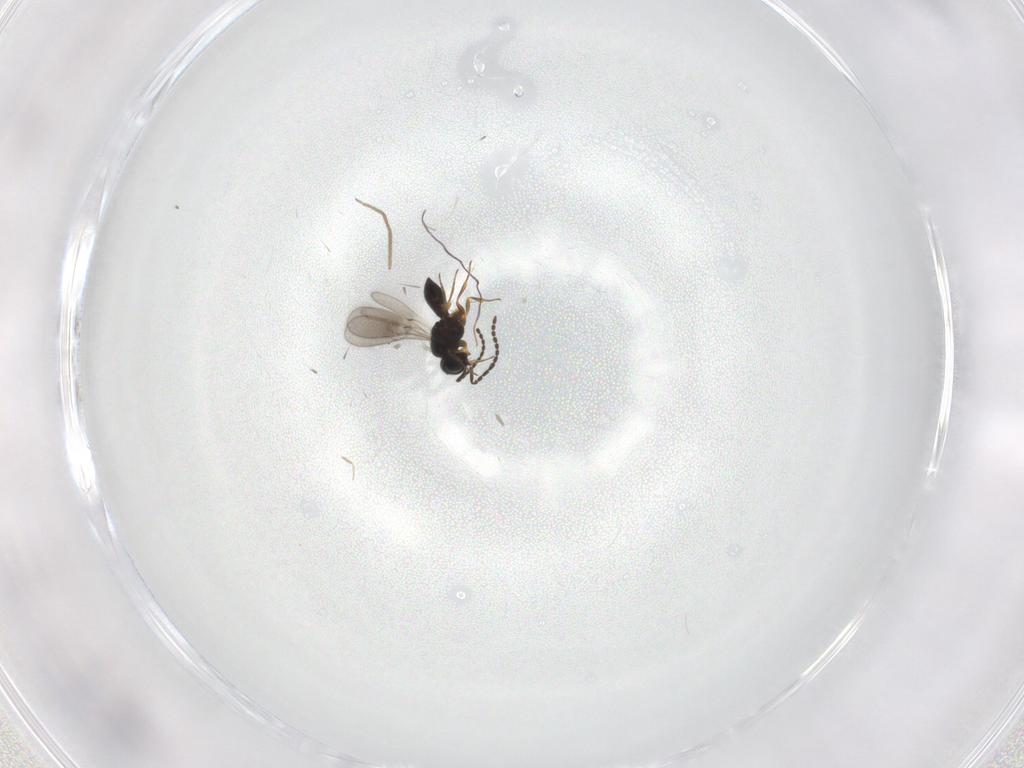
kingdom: Animalia
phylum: Arthropoda
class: Insecta
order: Hymenoptera
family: Scelionidae
